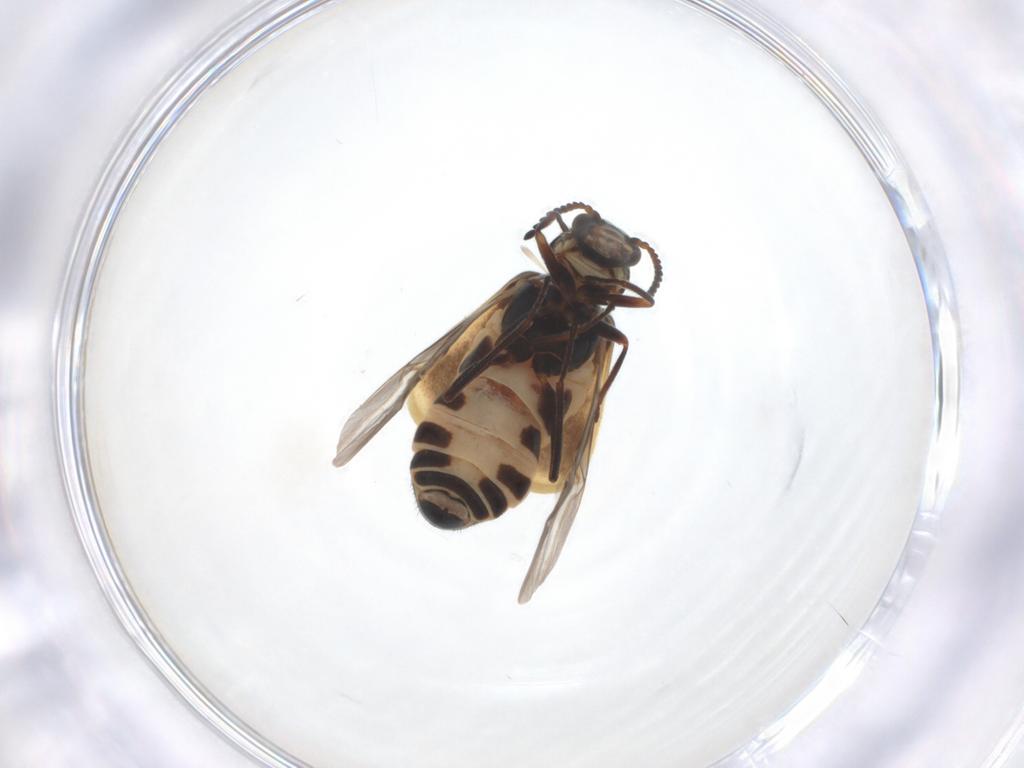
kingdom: Animalia
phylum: Arthropoda
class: Insecta
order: Coleoptera
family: Melyridae
